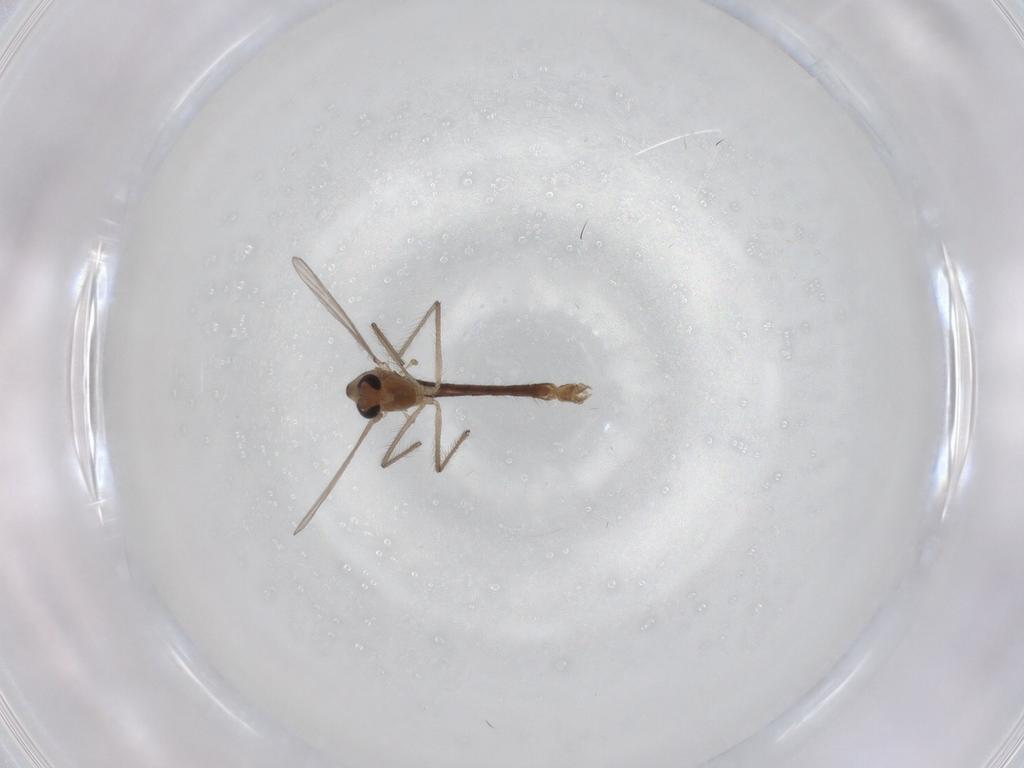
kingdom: Animalia
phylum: Arthropoda
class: Insecta
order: Diptera
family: Chironomidae
